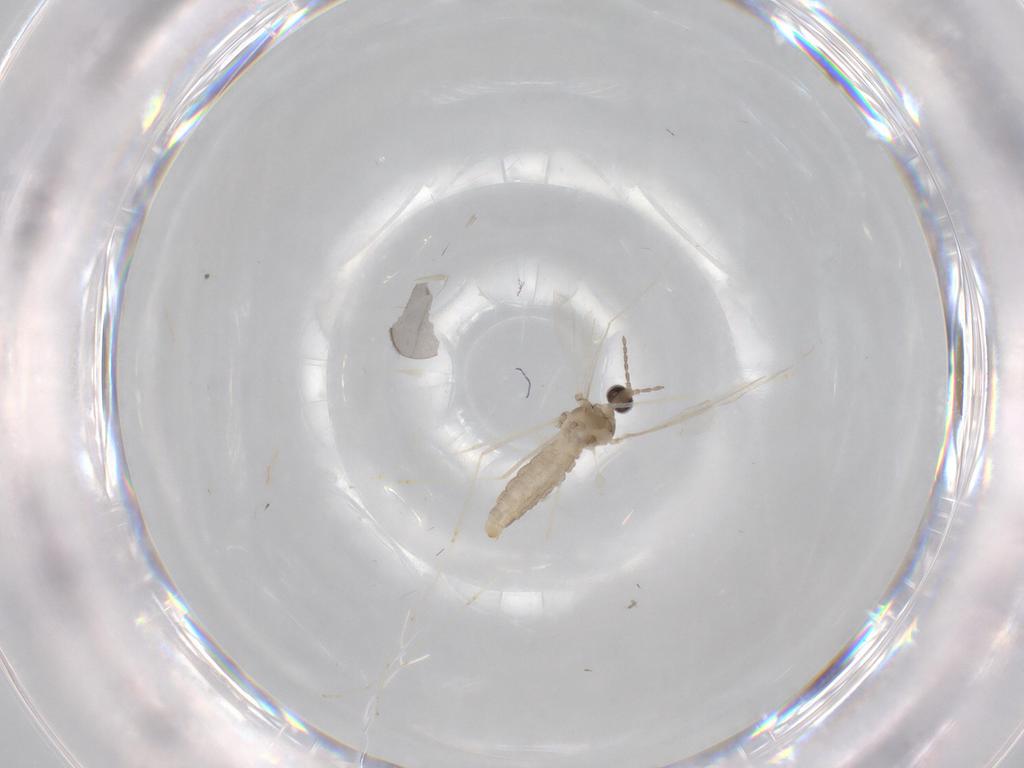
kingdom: Animalia
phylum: Arthropoda
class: Insecta
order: Diptera
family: Cecidomyiidae
